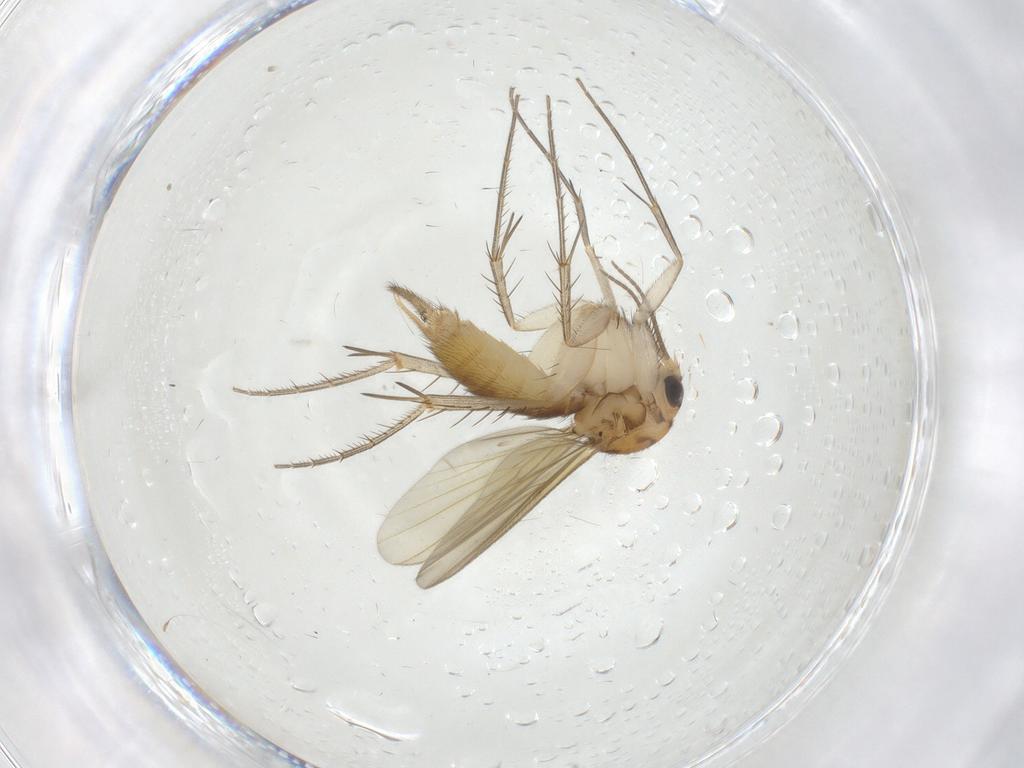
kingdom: Animalia
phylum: Arthropoda
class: Insecta
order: Diptera
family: Mycetophilidae
